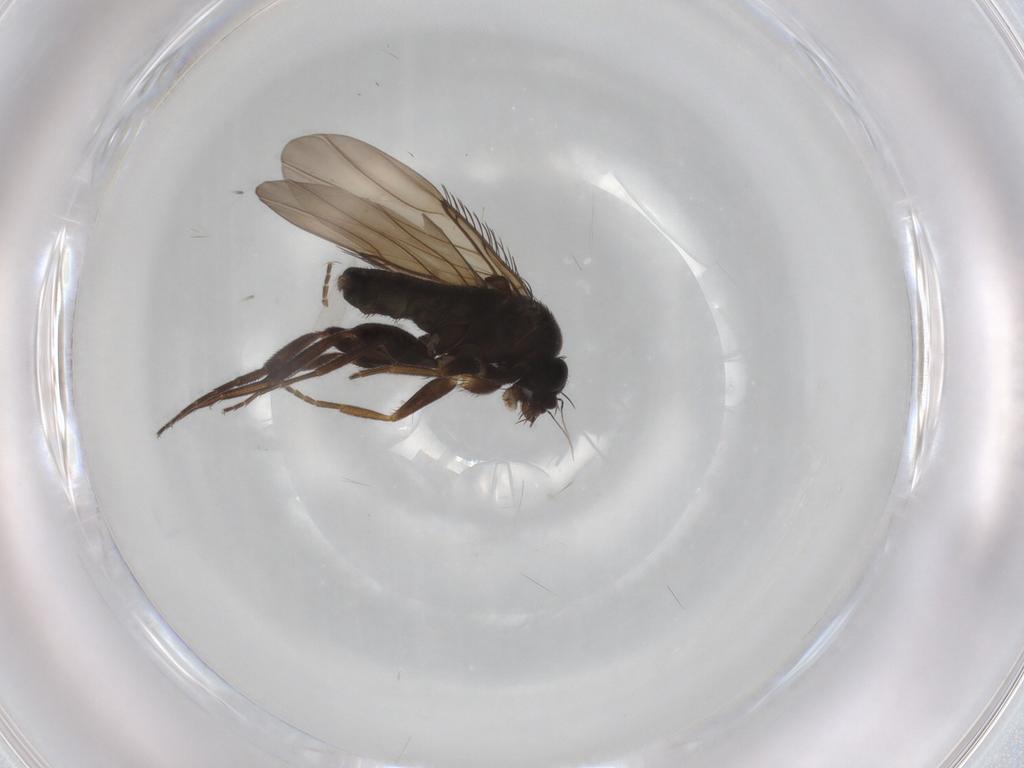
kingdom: Animalia
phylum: Arthropoda
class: Insecta
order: Diptera
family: Phoridae
